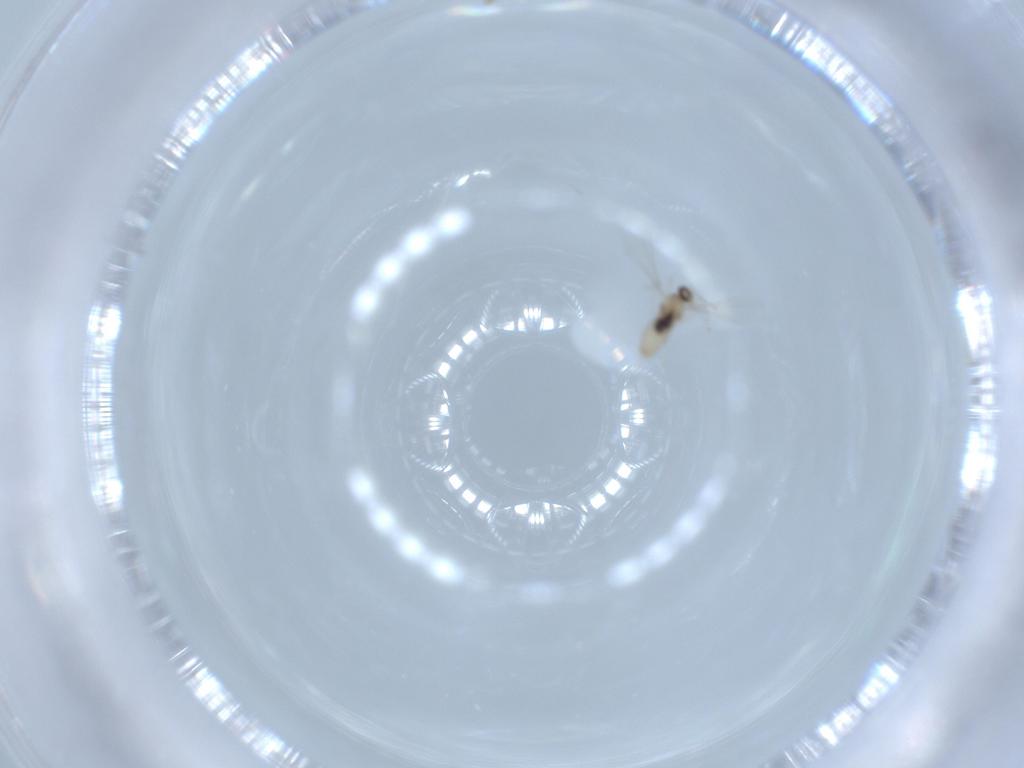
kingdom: Animalia
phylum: Arthropoda
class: Insecta
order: Diptera
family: Cecidomyiidae
